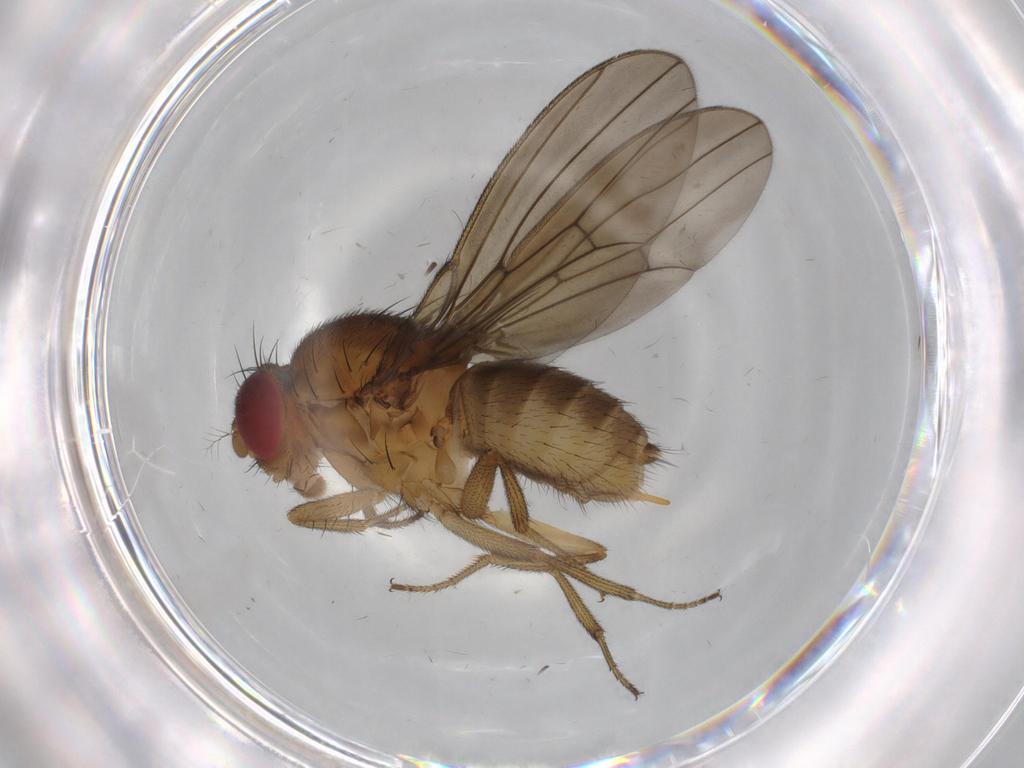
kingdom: Animalia
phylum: Arthropoda
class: Insecta
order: Diptera
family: Drosophilidae
